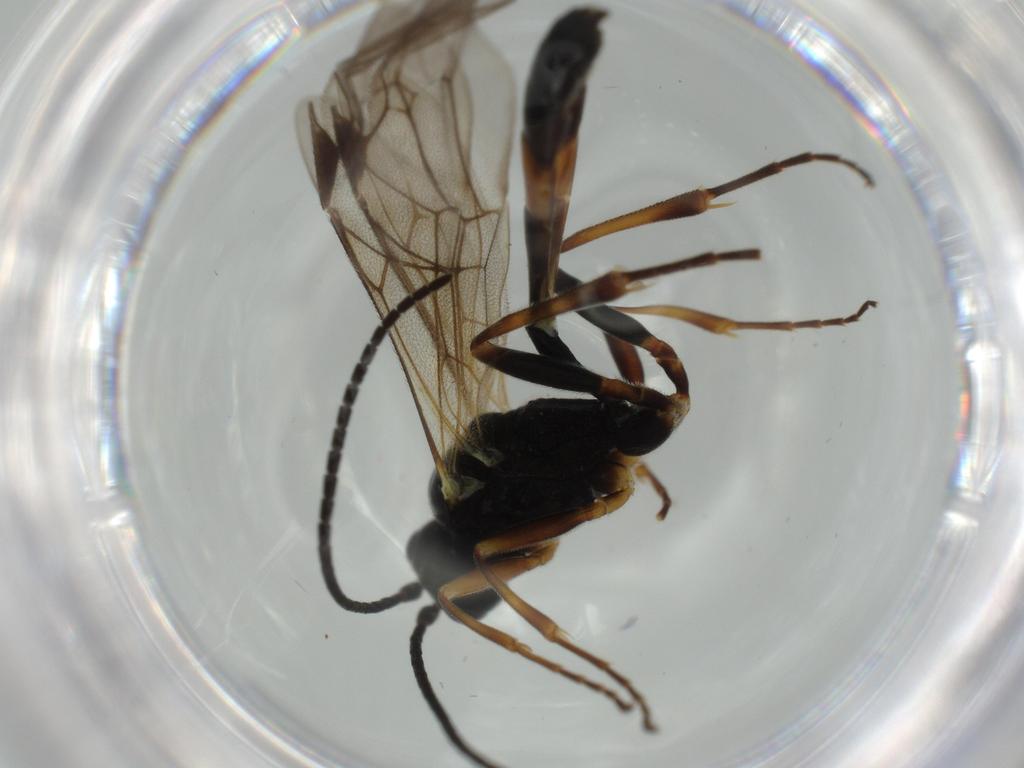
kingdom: Animalia
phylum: Arthropoda
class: Insecta
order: Hymenoptera
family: Ichneumonidae
